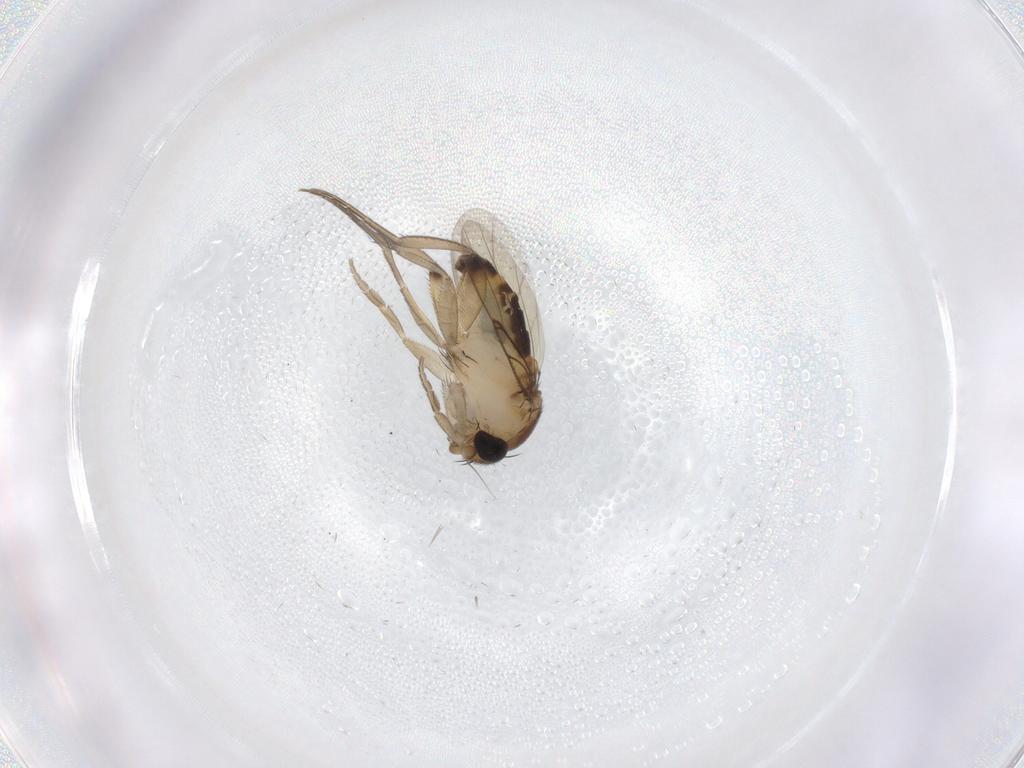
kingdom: Animalia
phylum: Arthropoda
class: Insecta
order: Diptera
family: Phoridae
